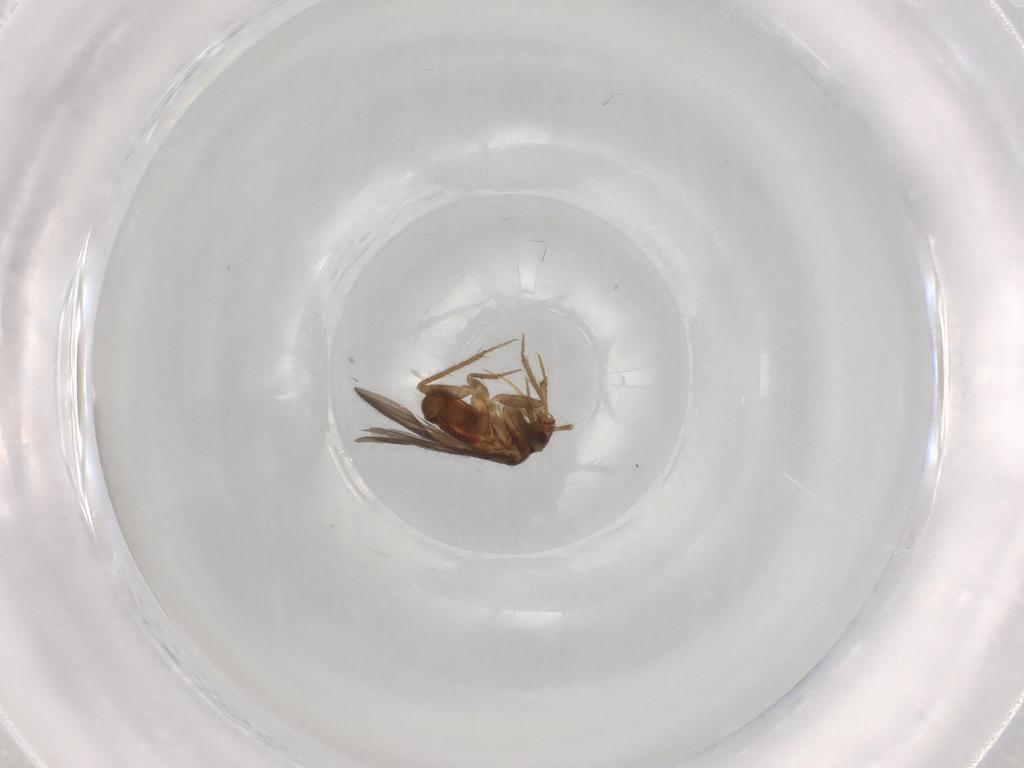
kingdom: Animalia
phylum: Arthropoda
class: Insecta
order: Hemiptera
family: Ceratocombidae
